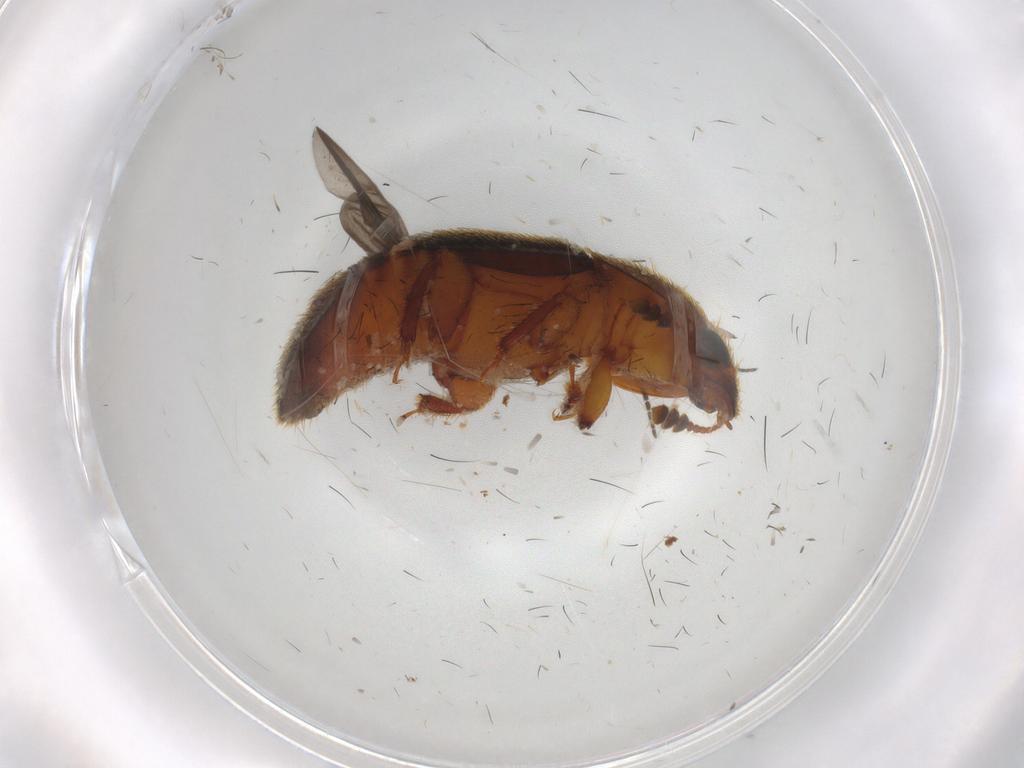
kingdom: Animalia
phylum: Arthropoda
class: Insecta
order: Coleoptera
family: Nitidulidae
